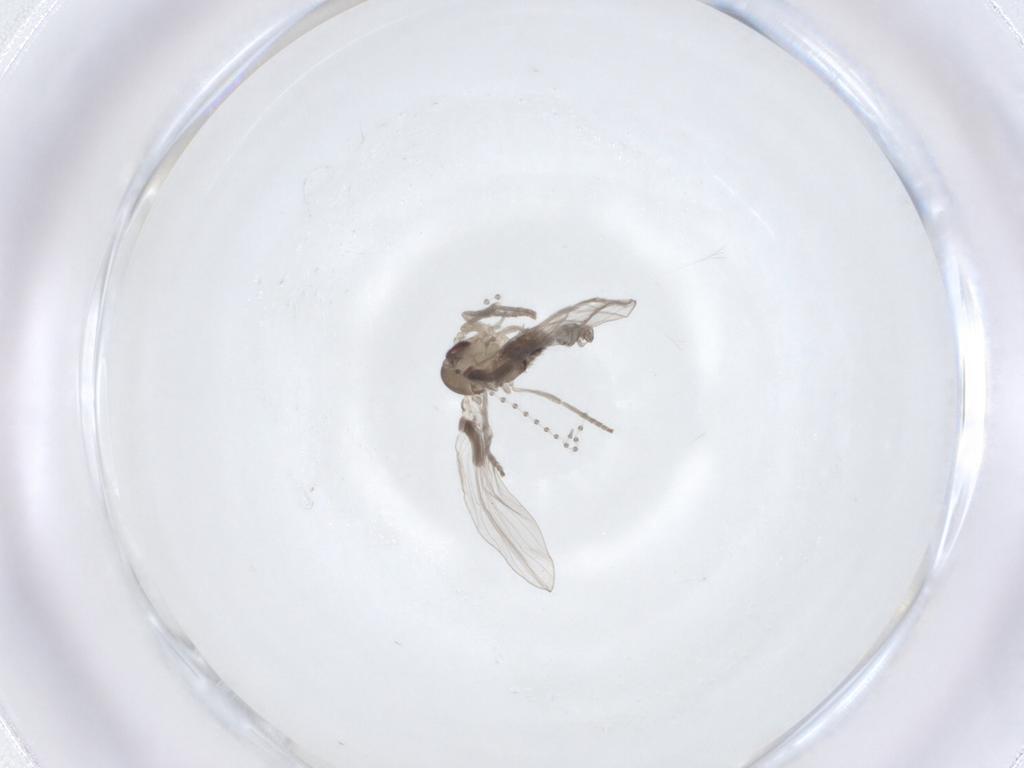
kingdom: Animalia
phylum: Arthropoda
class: Insecta
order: Diptera
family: Psychodidae
